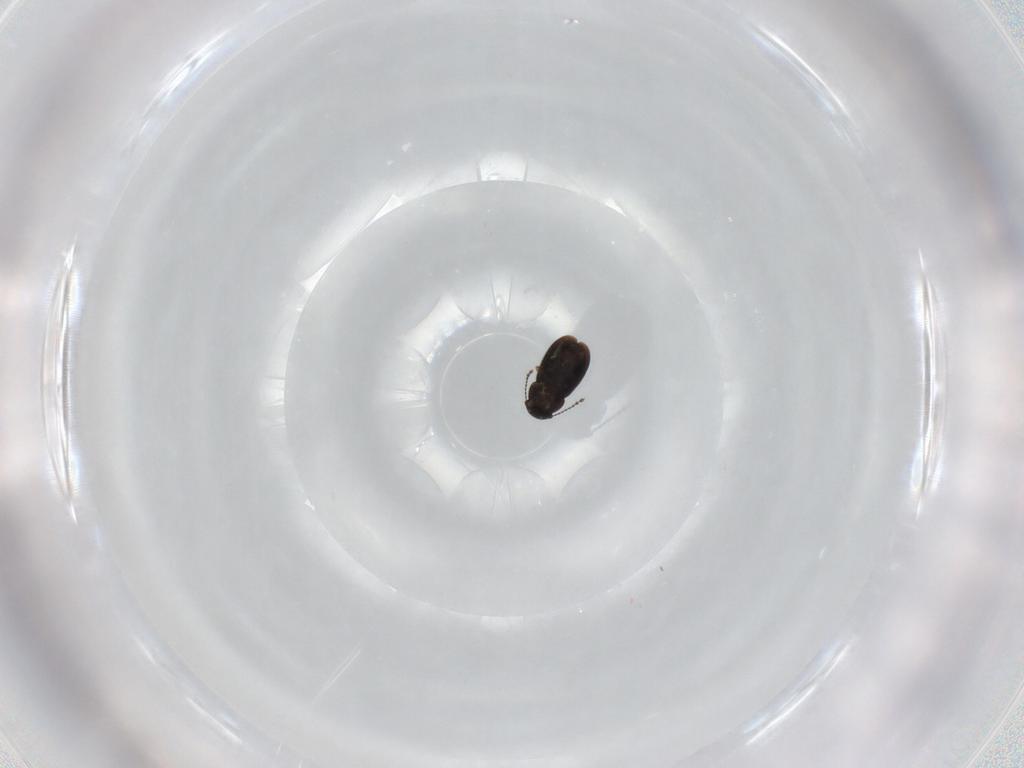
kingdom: Animalia
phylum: Arthropoda
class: Insecta
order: Coleoptera
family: Ptiliidae
